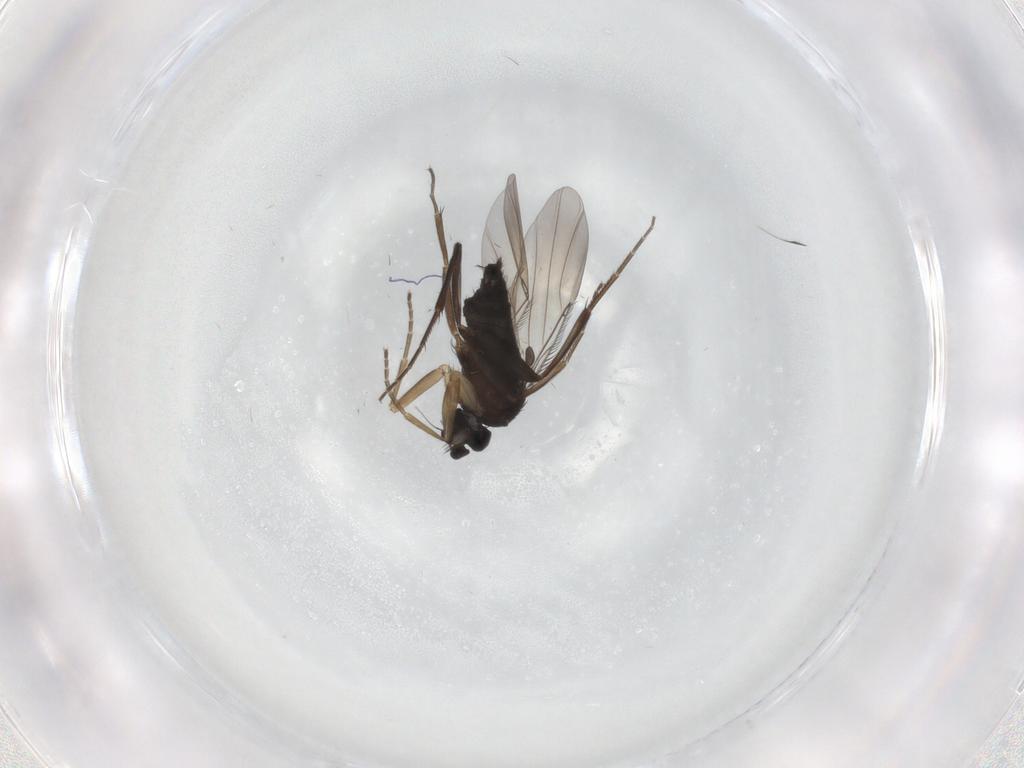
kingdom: Animalia
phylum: Arthropoda
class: Insecta
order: Diptera
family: Phoridae
